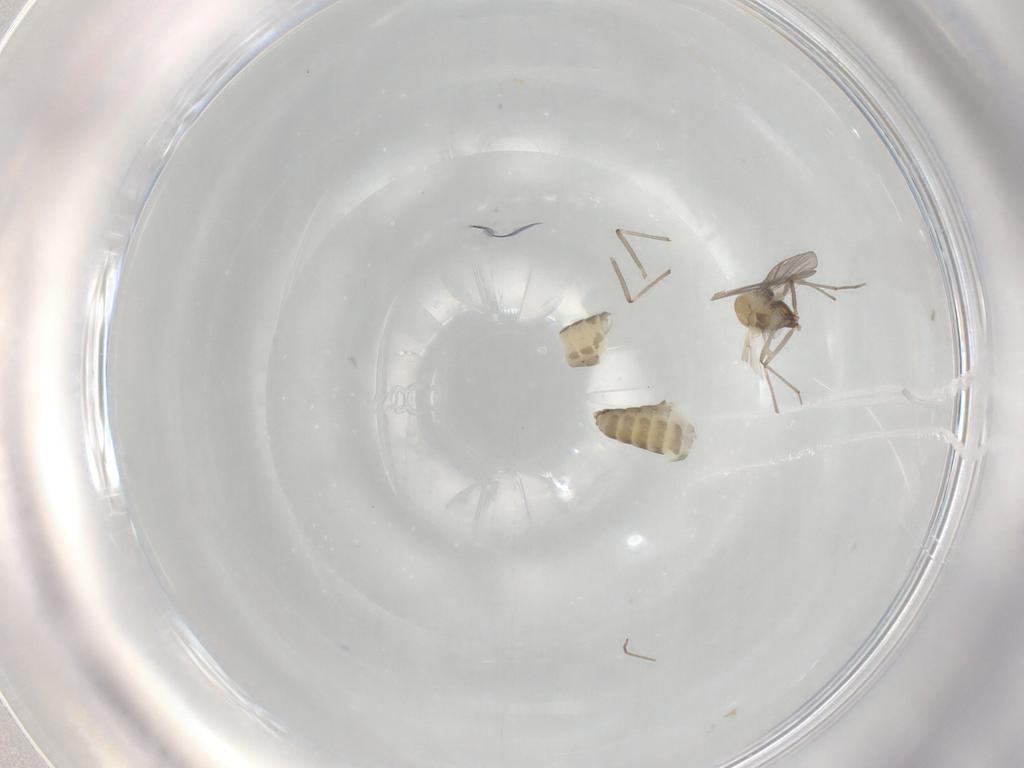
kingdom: Animalia
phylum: Arthropoda
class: Insecta
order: Diptera
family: Chironomidae
